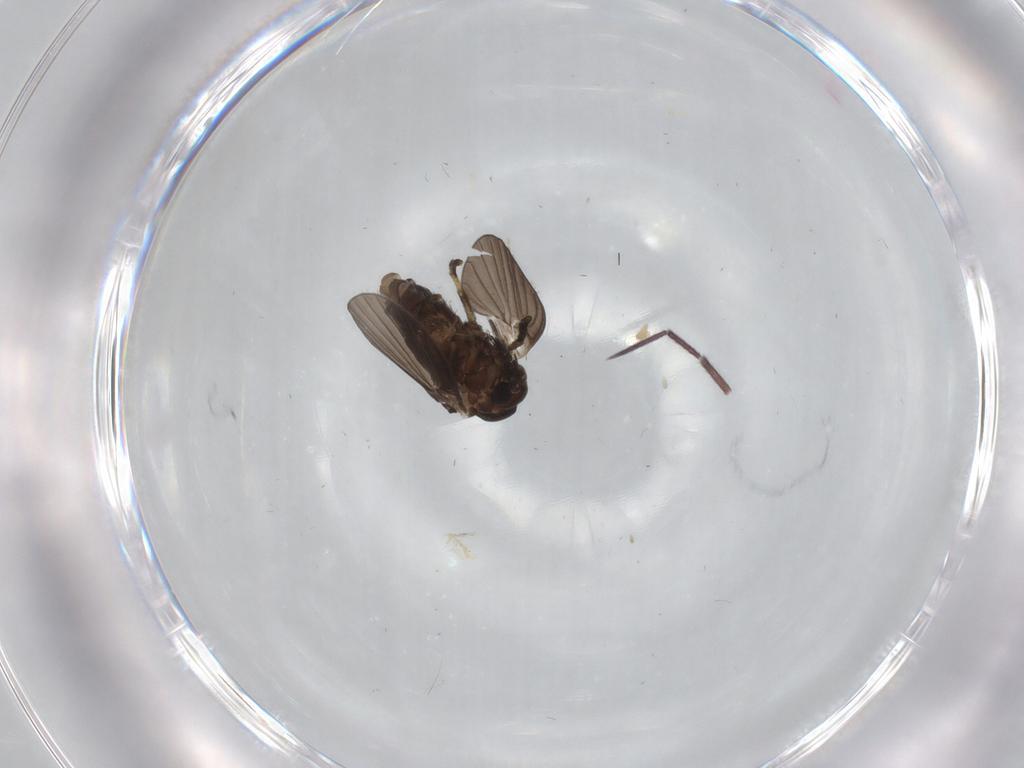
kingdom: Animalia
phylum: Arthropoda
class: Insecta
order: Diptera
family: Psychodidae
